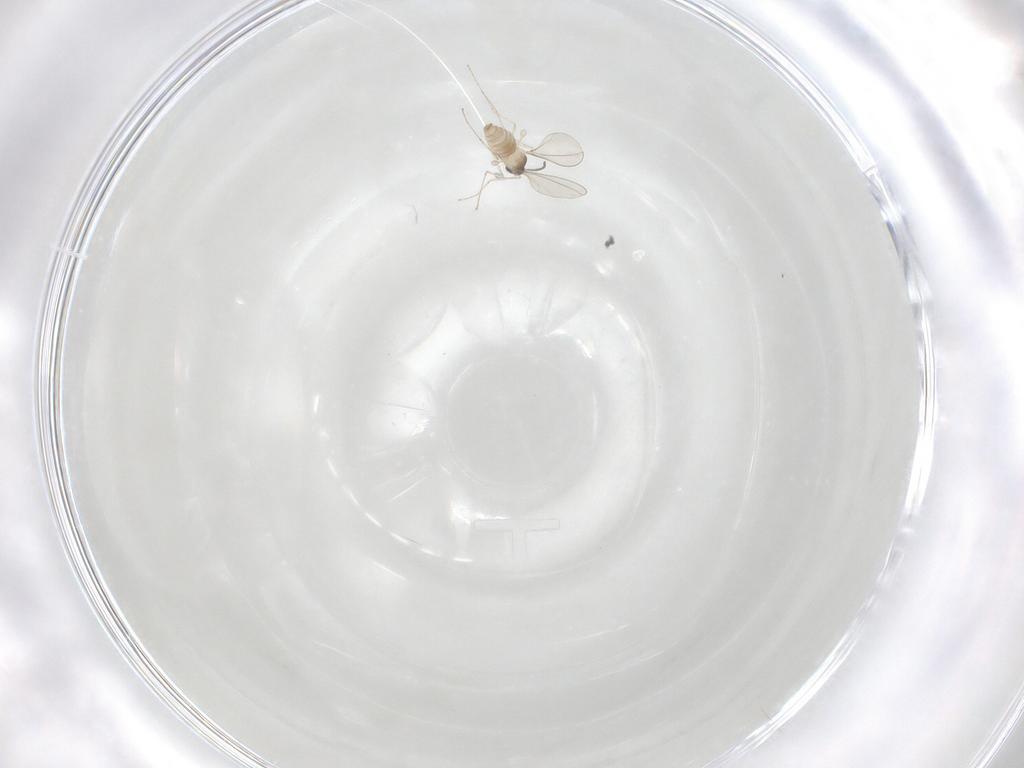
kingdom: Animalia
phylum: Arthropoda
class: Insecta
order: Diptera
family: Cecidomyiidae
